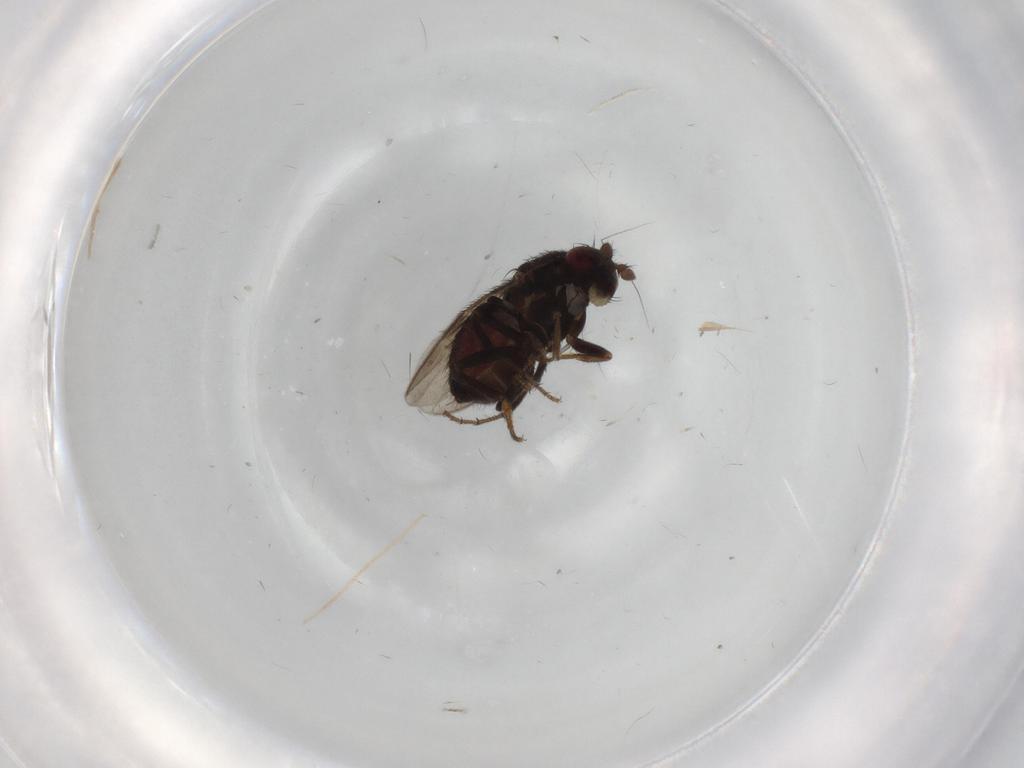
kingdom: Animalia
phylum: Arthropoda
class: Insecta
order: Diptera
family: Sphaeroceridae
